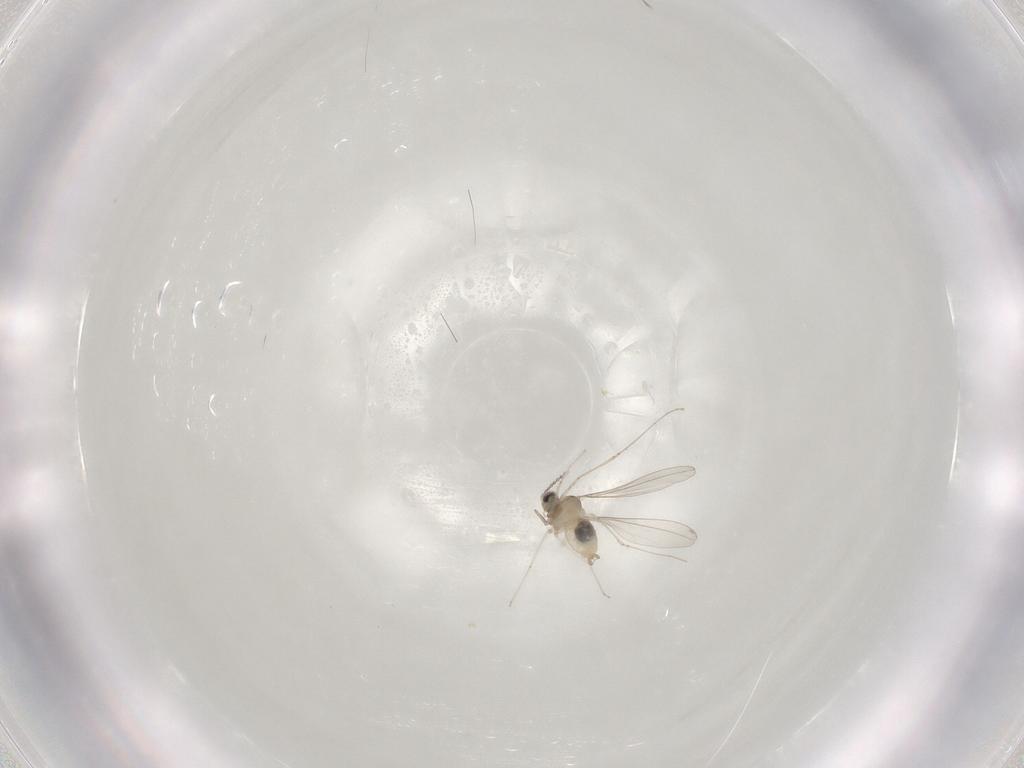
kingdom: Animalia
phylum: Arthropoda
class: Insecta
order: Diptera
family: Cecidomyiidae
